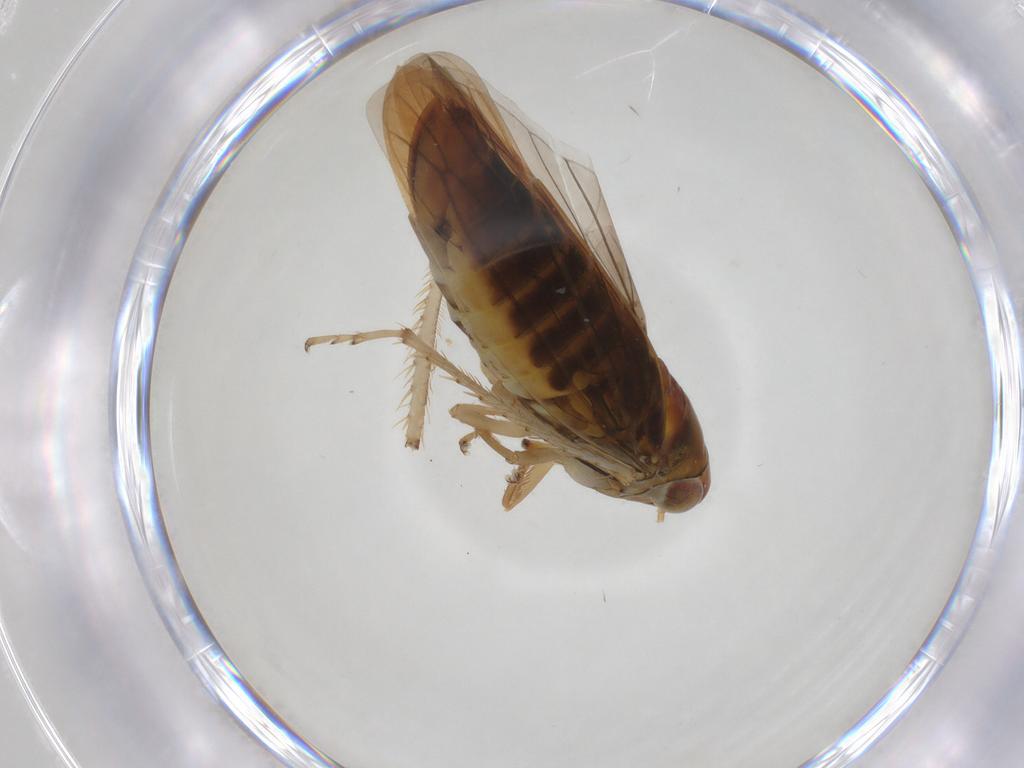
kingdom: Animalia
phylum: Arthropoda
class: Insecta
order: Hemiptera
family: Cicadellidae
